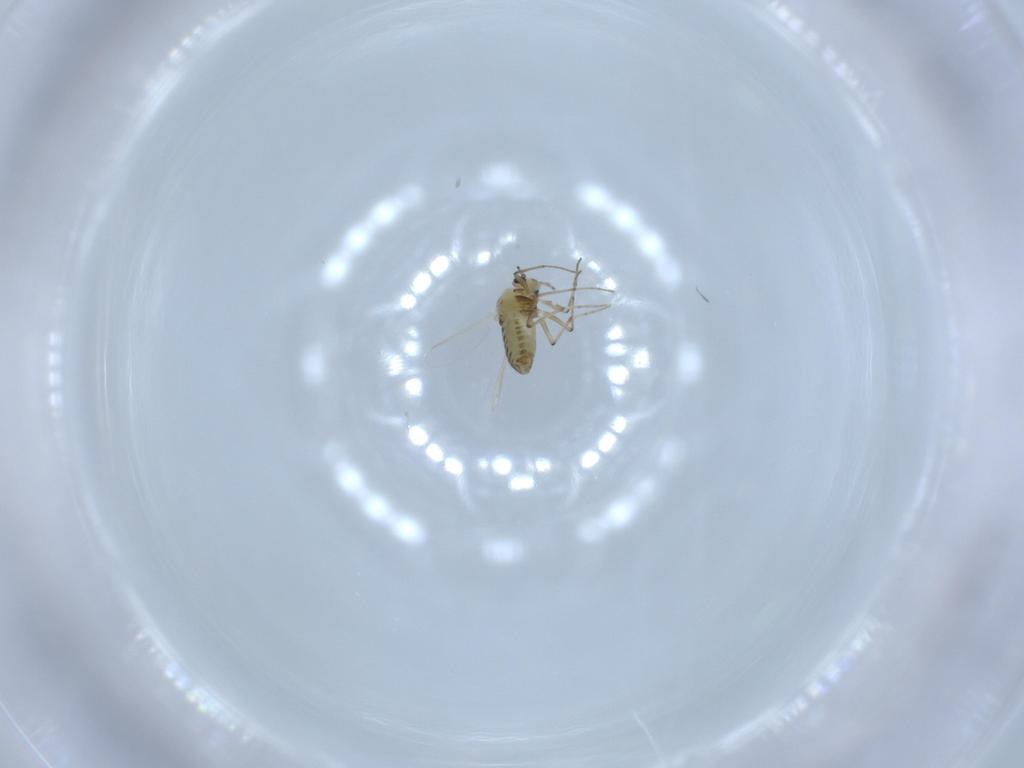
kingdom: Animalia
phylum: Arthropoda
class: Insecta
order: Diptera
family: Chironomidae
